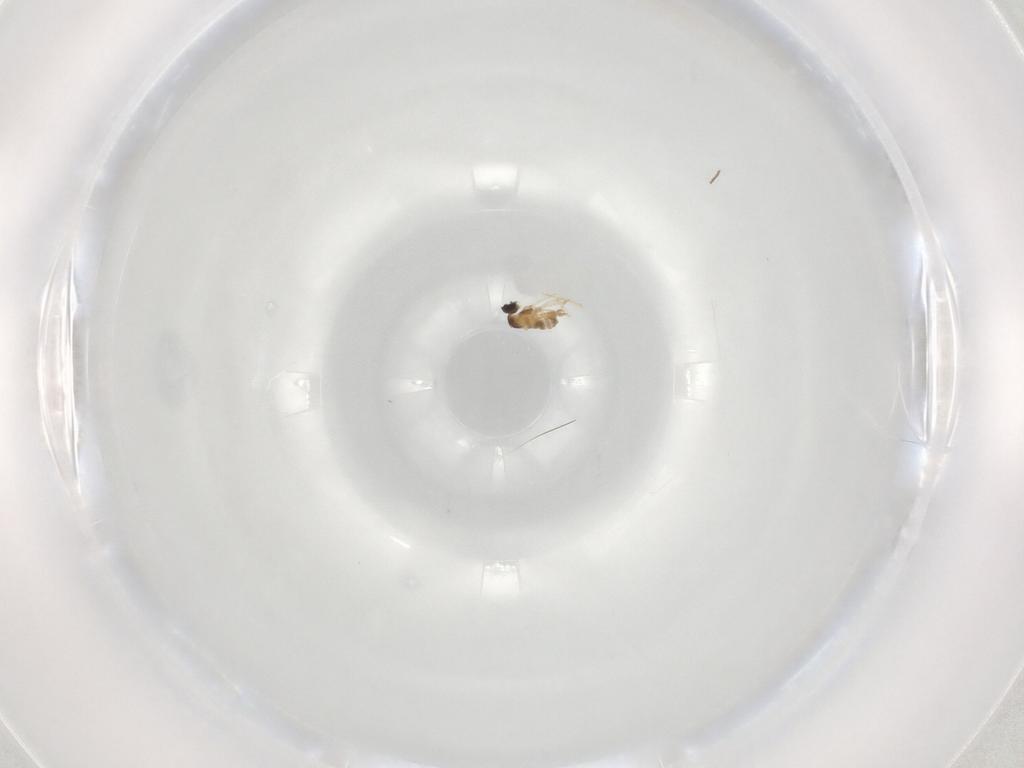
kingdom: Animalia
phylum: Arthropoda
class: Insecta
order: Diptera
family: Cecidomyiidae
